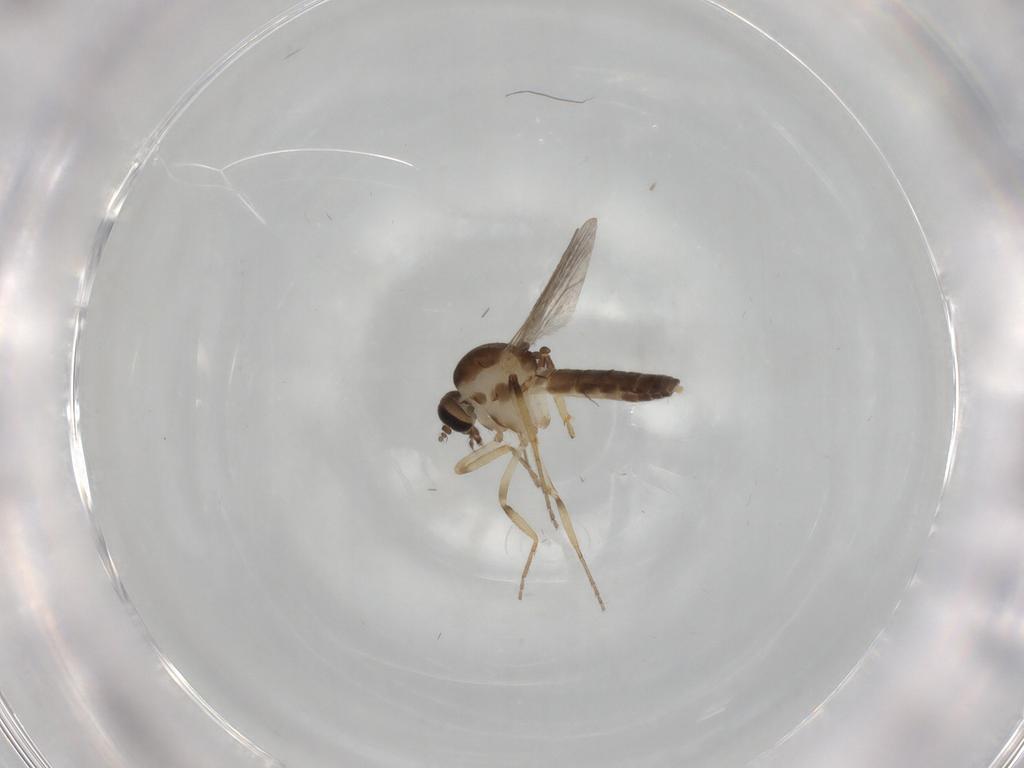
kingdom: Animalia
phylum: Arthropoda
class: Insecta
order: Diptera
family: Ceratopogonidae
